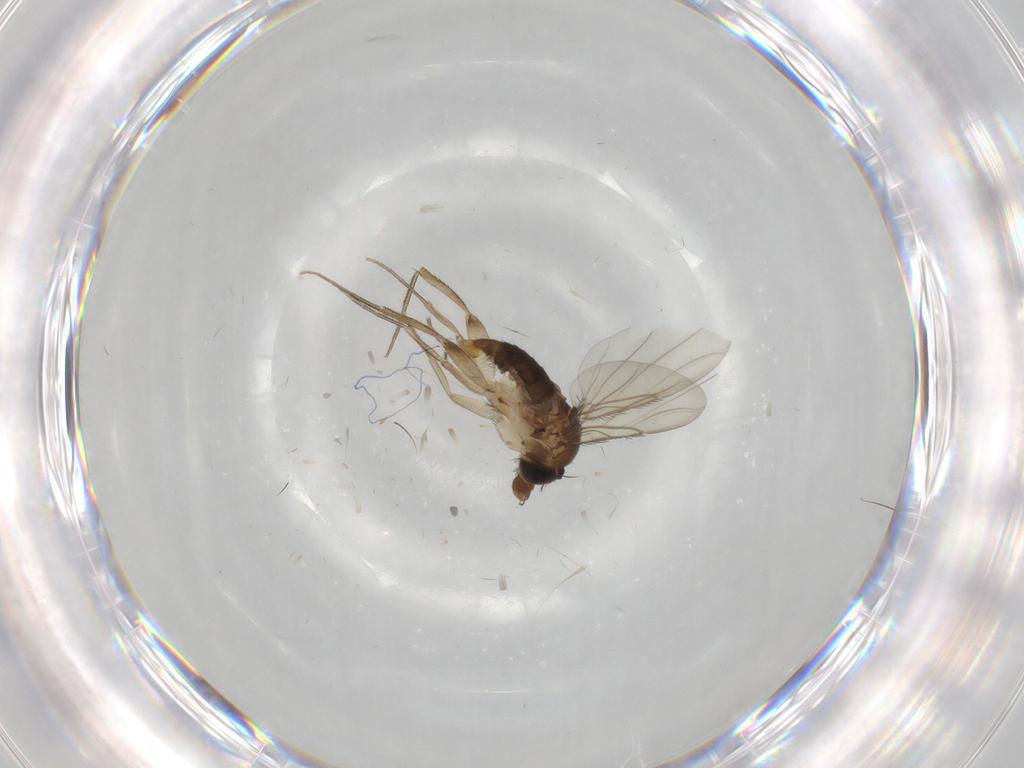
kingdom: Animalia
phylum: Arthropoda
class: Insecta
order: Diptera
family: Phoridae
